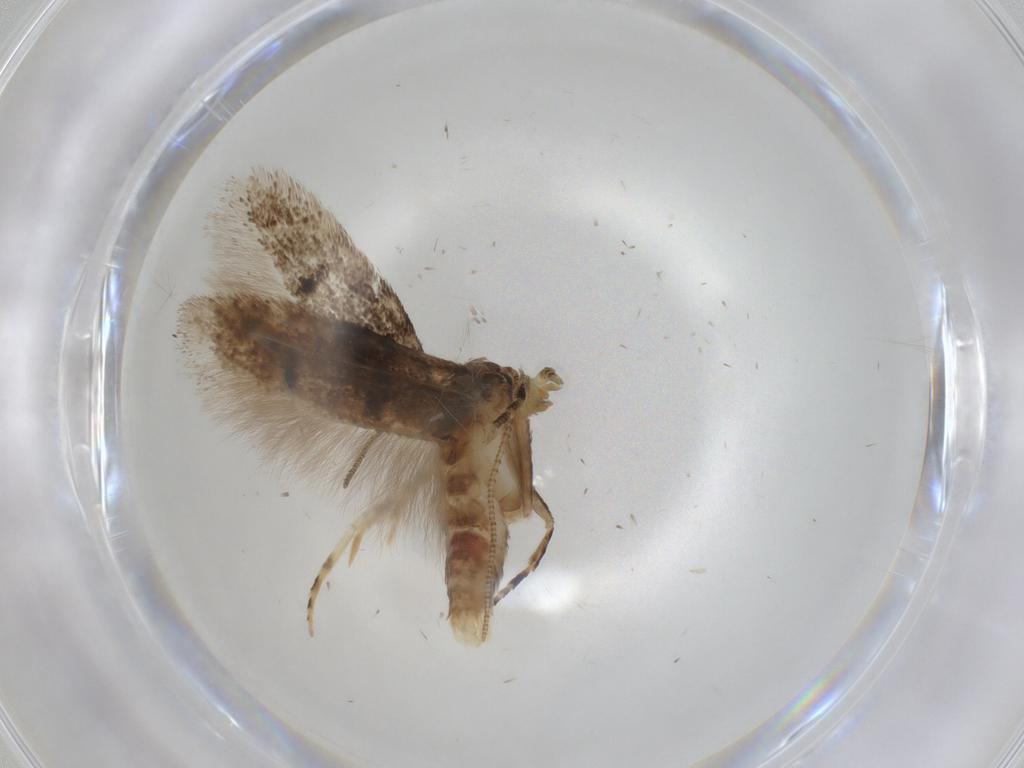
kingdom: Animalia
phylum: Arthropoda
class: Insecta
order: Lepidoptera
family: Gelechiidae
